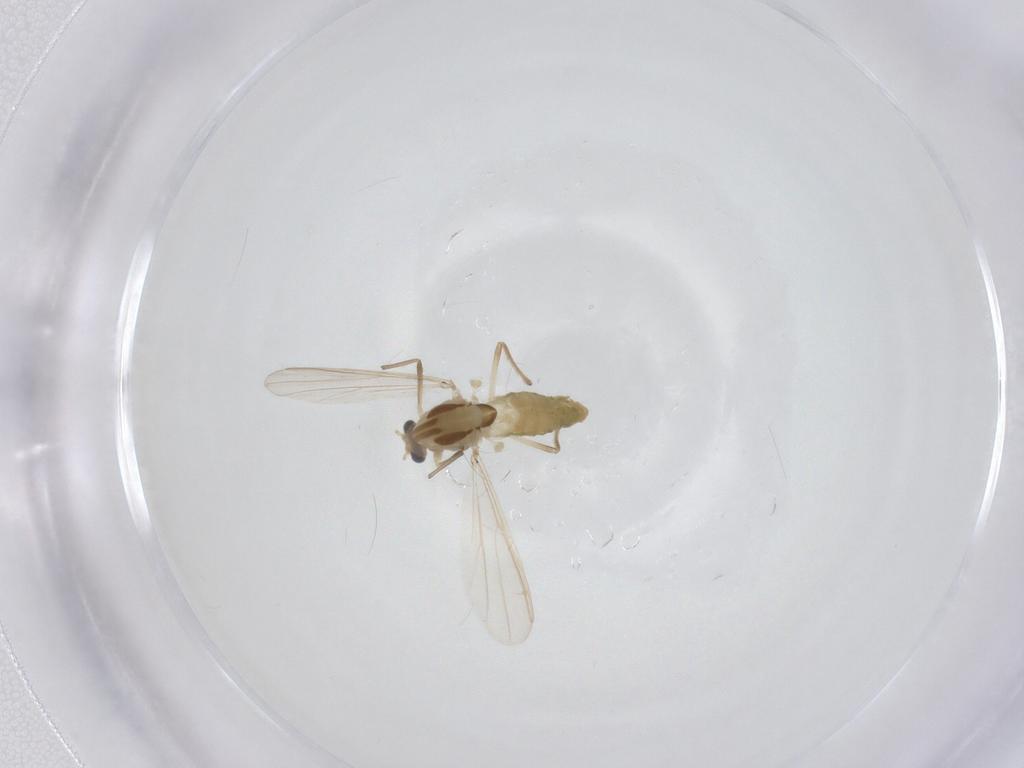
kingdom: Animalia
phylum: Arthropoda
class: Insecta
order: Diptera
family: Chironomidae
